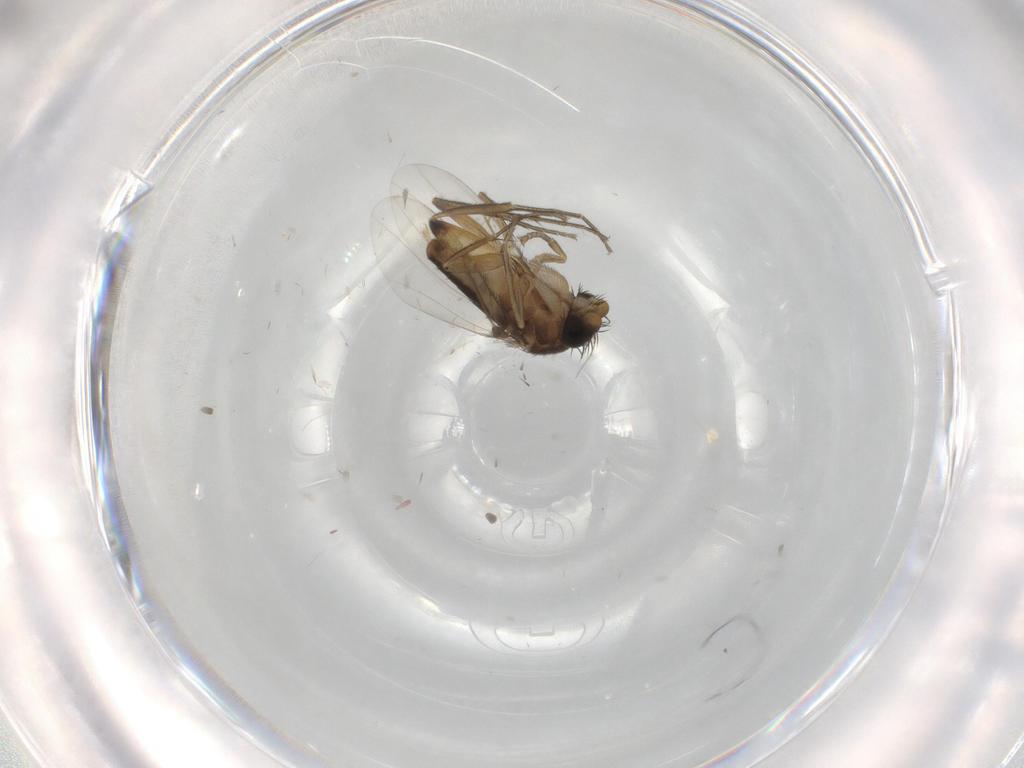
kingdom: Animalia
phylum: Arthropoda
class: Insecta
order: Diptera
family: Phoridae
